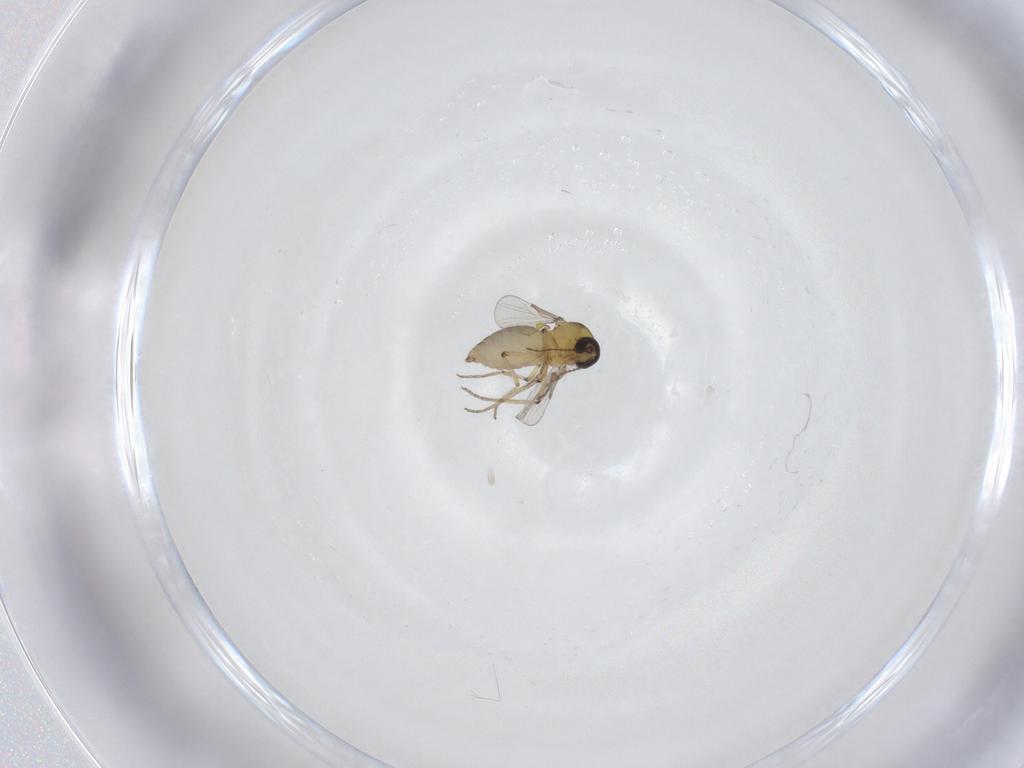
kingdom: Animalia
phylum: Arthropoda
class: Insecta
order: Diptera
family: Ceratopogonidae
